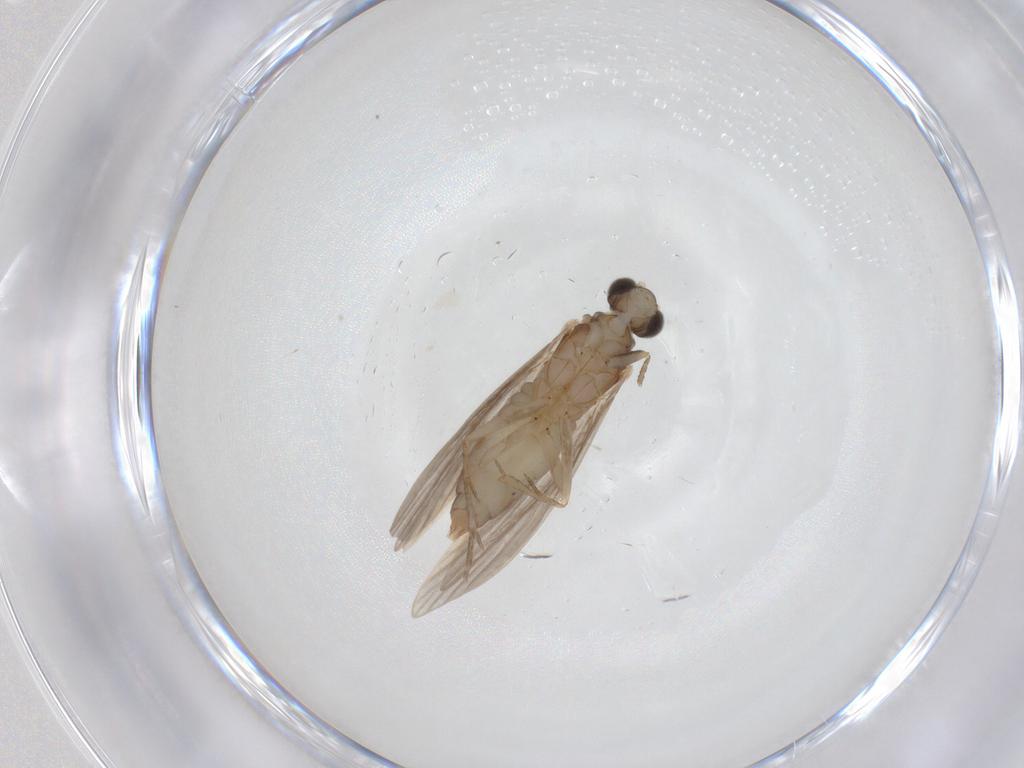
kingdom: Animalia
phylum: Arthropoda
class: Insecta
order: Trichoptera
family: Psychomyiidae
